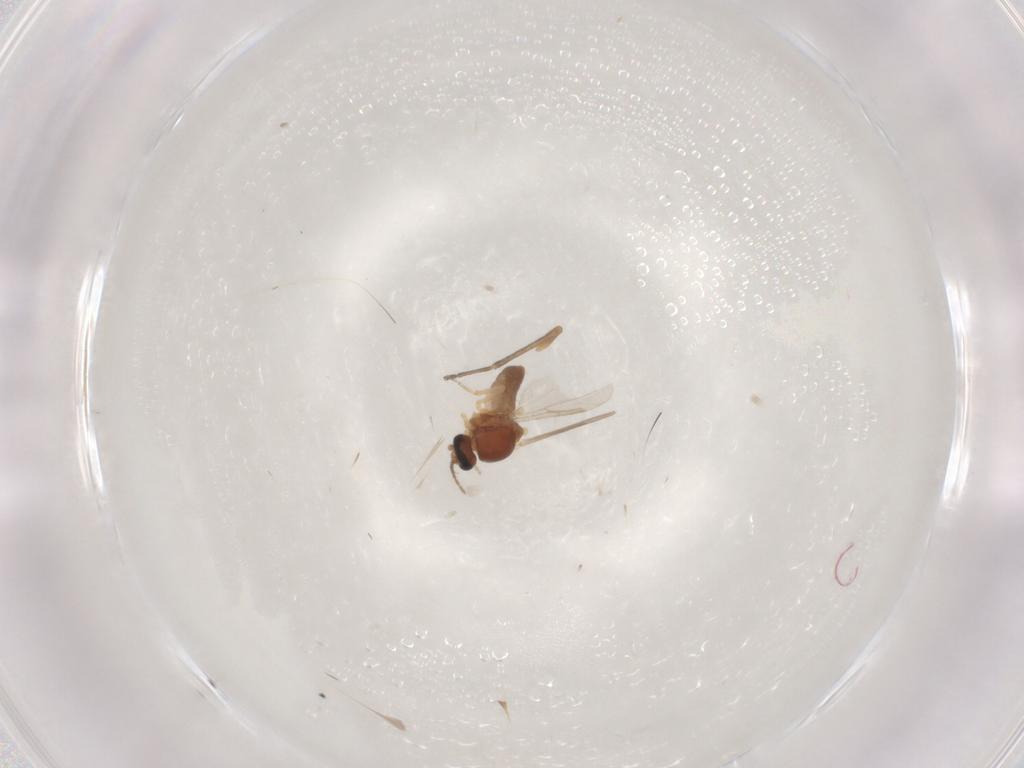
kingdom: Animalia
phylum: Arthropoda
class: Insecta
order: Diptera
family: Ceratopogonidae
